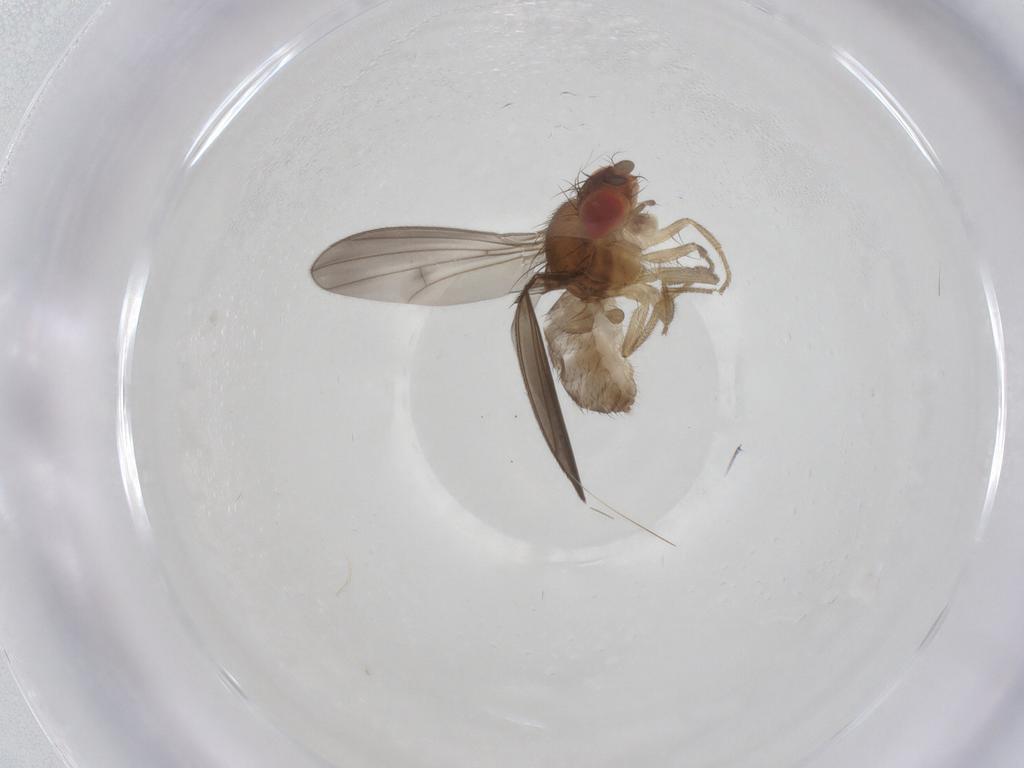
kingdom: Animalia
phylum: Arthropoda
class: Insecta
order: Diptera
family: Drosophilidae
